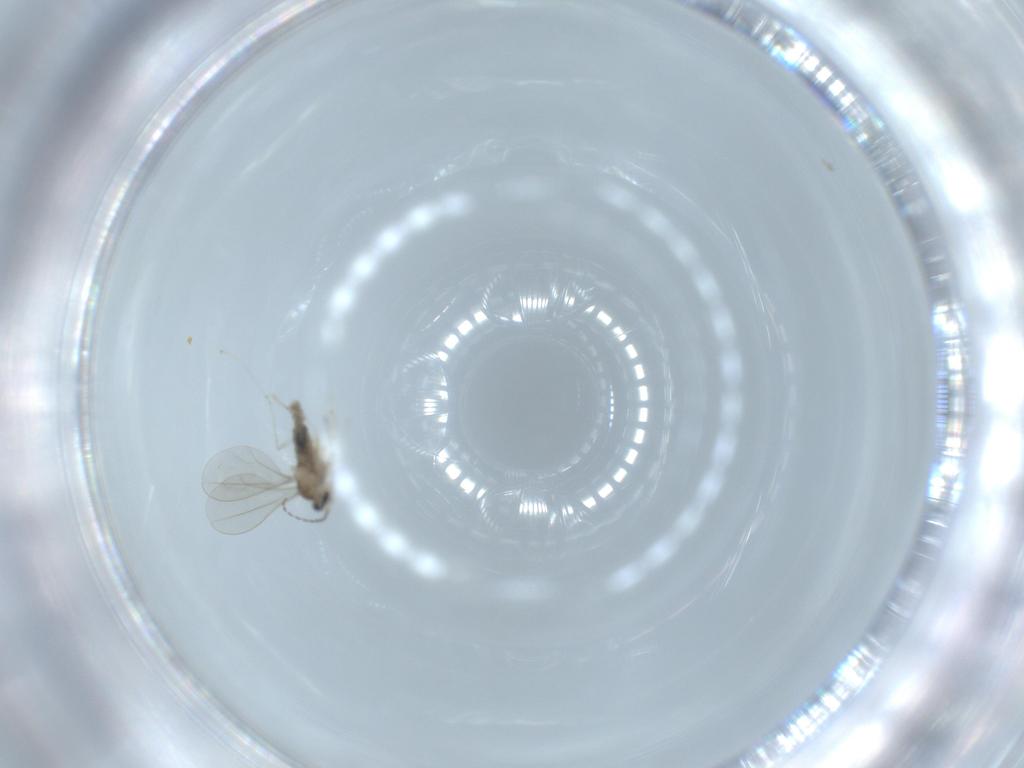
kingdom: Animalia
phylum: Arthropoda
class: Insecta
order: Diptera
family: Cecidomyiidae
